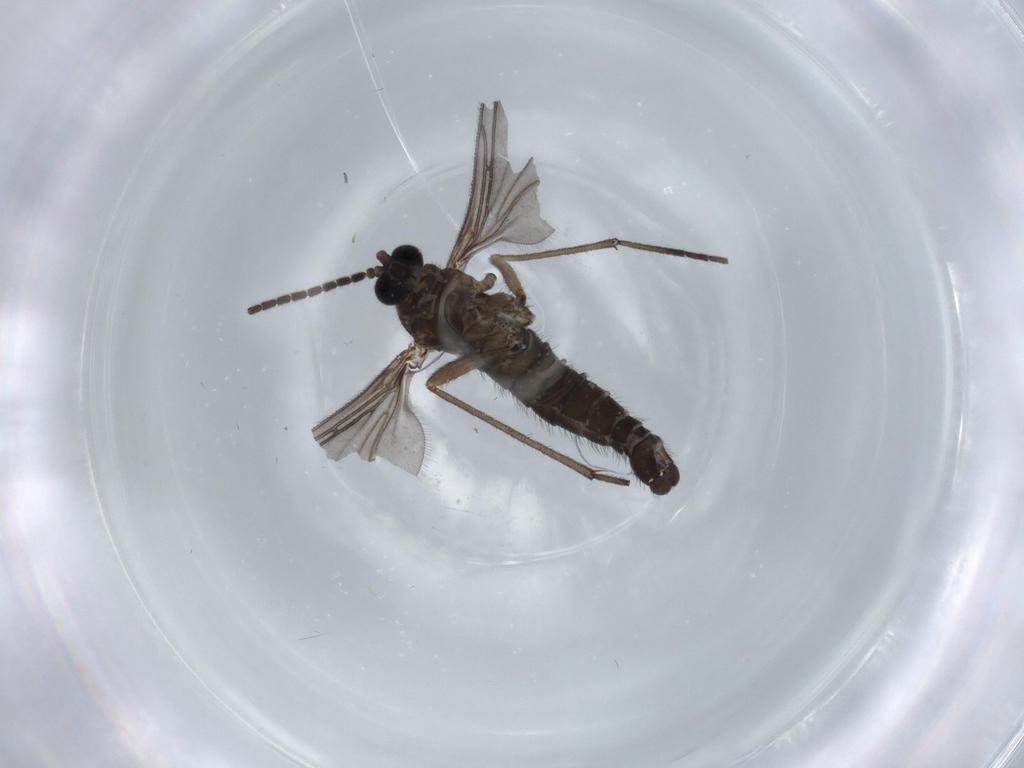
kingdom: Animalia
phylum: Arthropoda
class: Insecta
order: Diptera
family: Sciaridae
